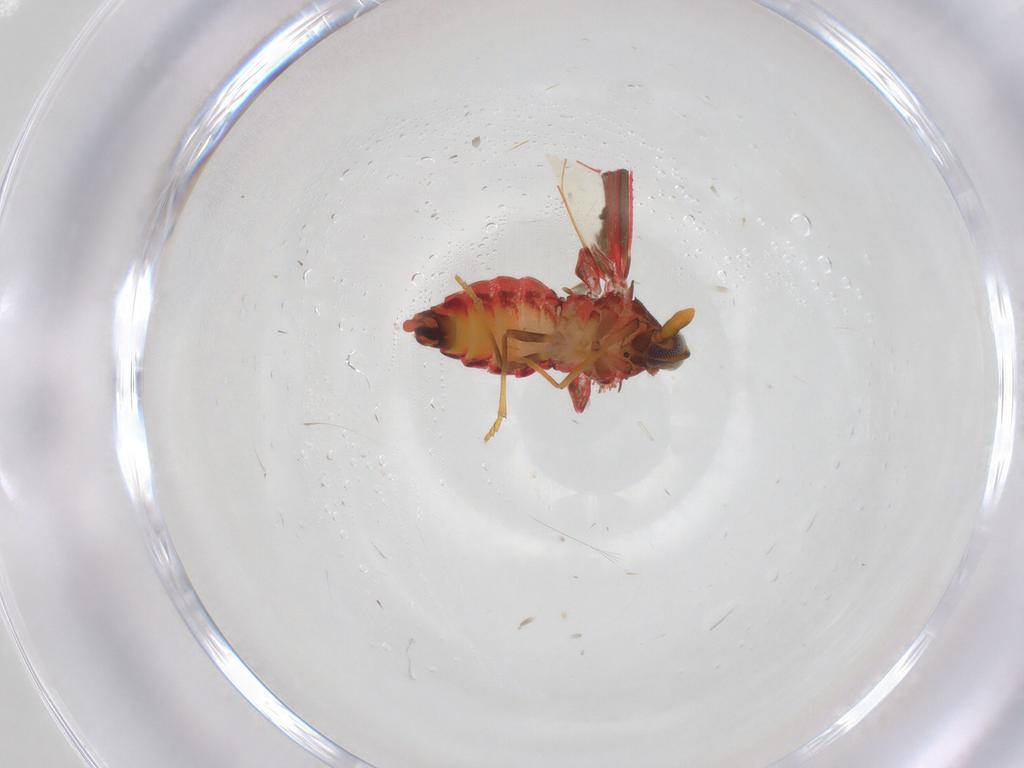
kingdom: Animalia
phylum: Arthropoda
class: Insecta
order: Hemiptera
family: Derbidae
